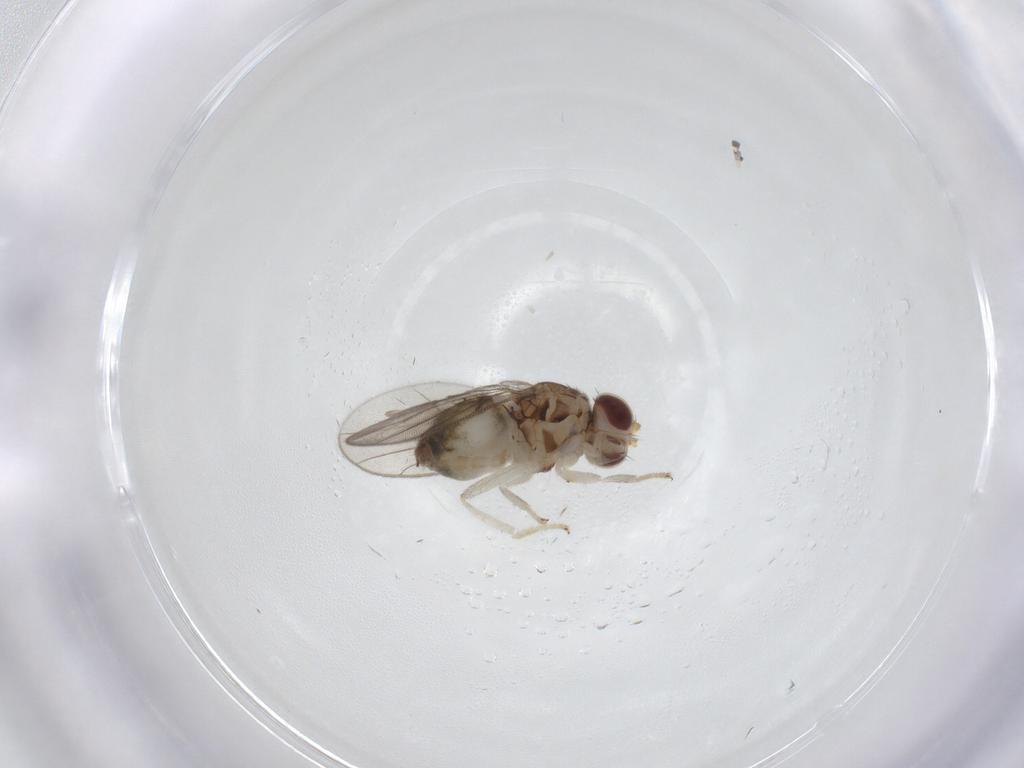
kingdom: Animalia
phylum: Arthropoda
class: Insecta
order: Diptera
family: Chloropidae
